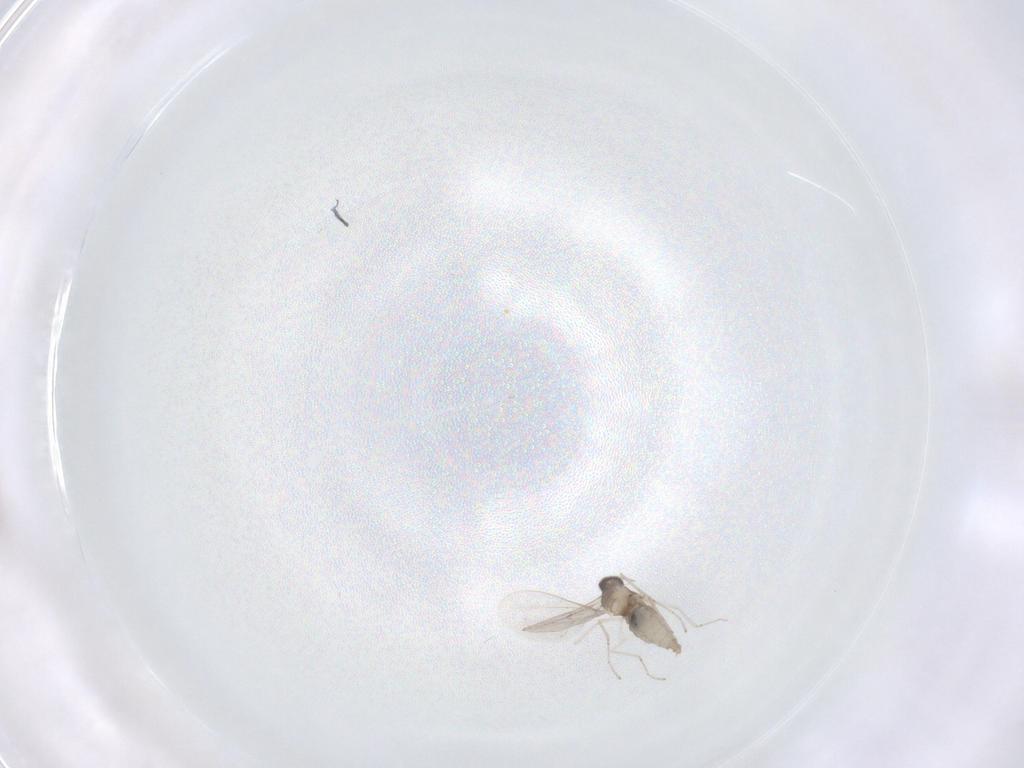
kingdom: Animalia
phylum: Arthropoda
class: Insecta
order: Diptera
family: Cecidomyiidae
